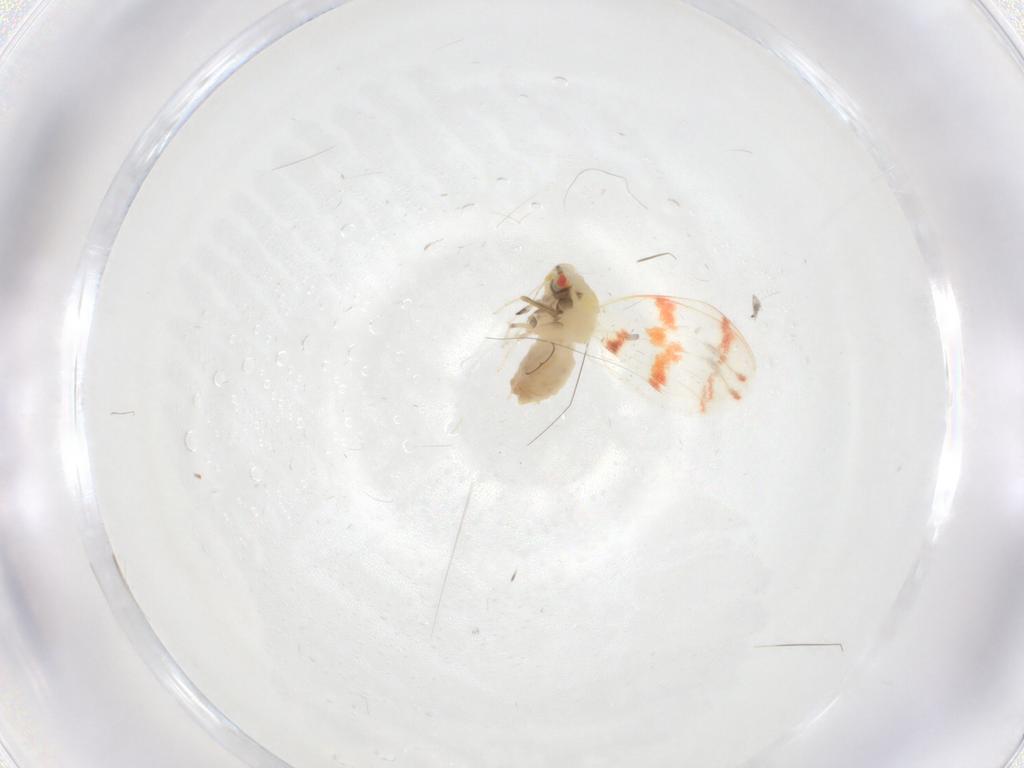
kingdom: Animalia
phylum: Arthropoda
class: Insecta
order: Hemiptera
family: Aleyrodidae
